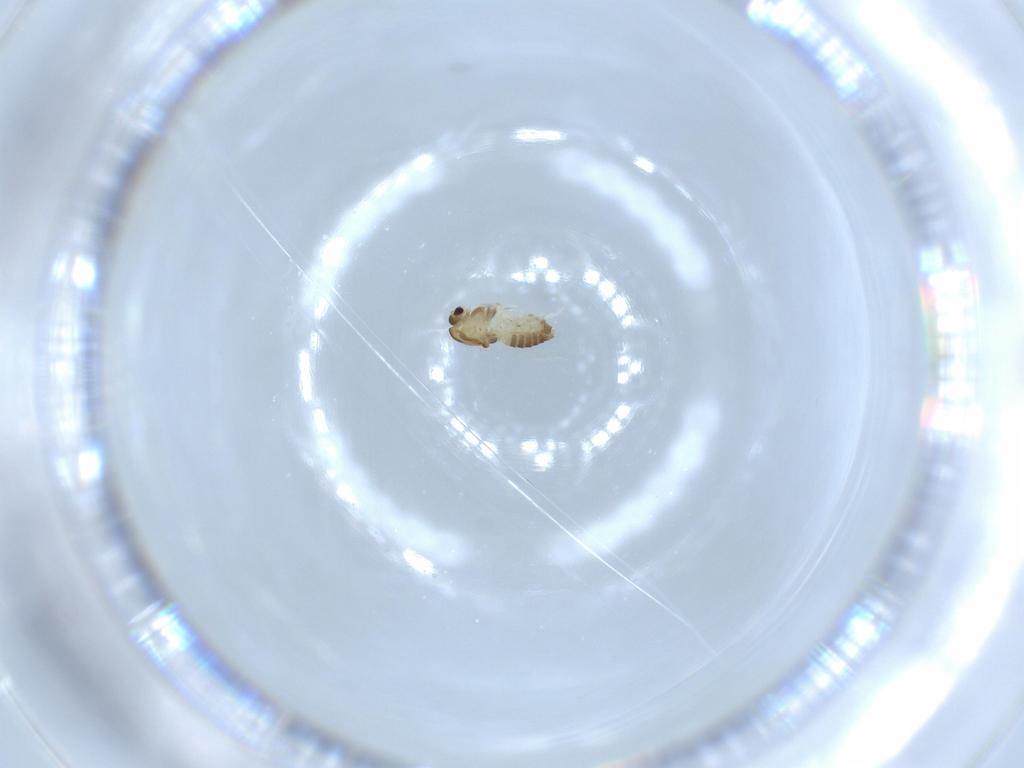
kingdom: Animalia
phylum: Arthropoda
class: Insecta
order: Diptera
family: Chironomidae
